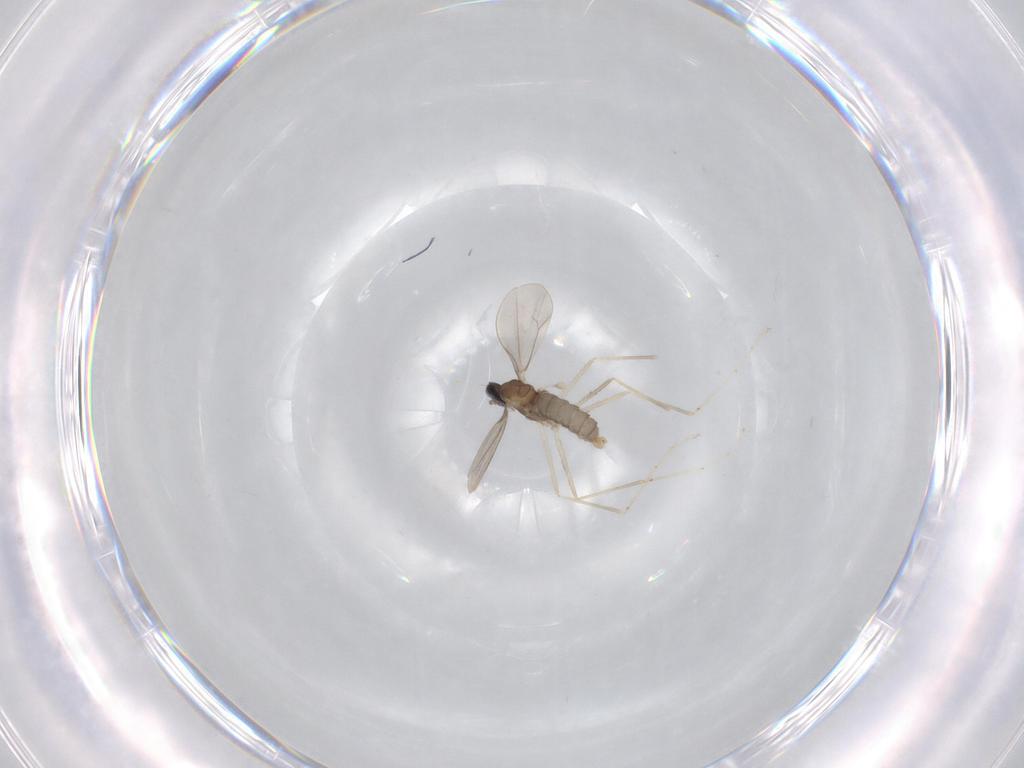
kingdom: Animalia
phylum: Arthropoda
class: Insecta
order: Diptera
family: Cecidomyiidae
